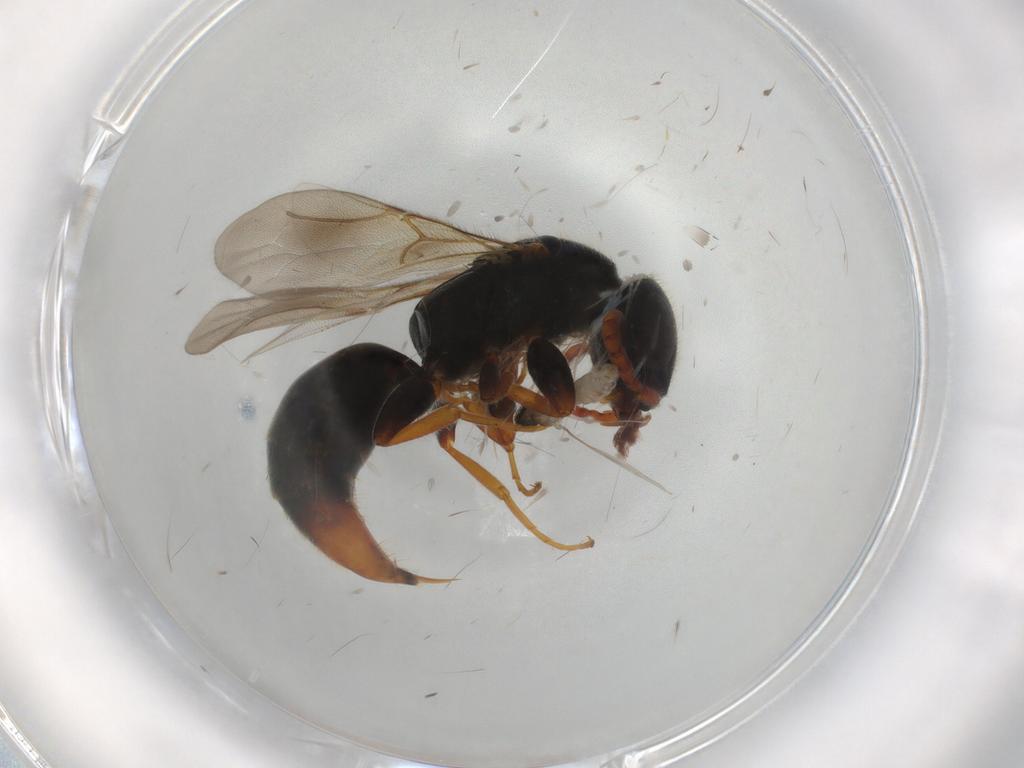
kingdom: Animalia
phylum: Arthropoda
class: Insecta
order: Hymenoptera
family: Bethylidae
